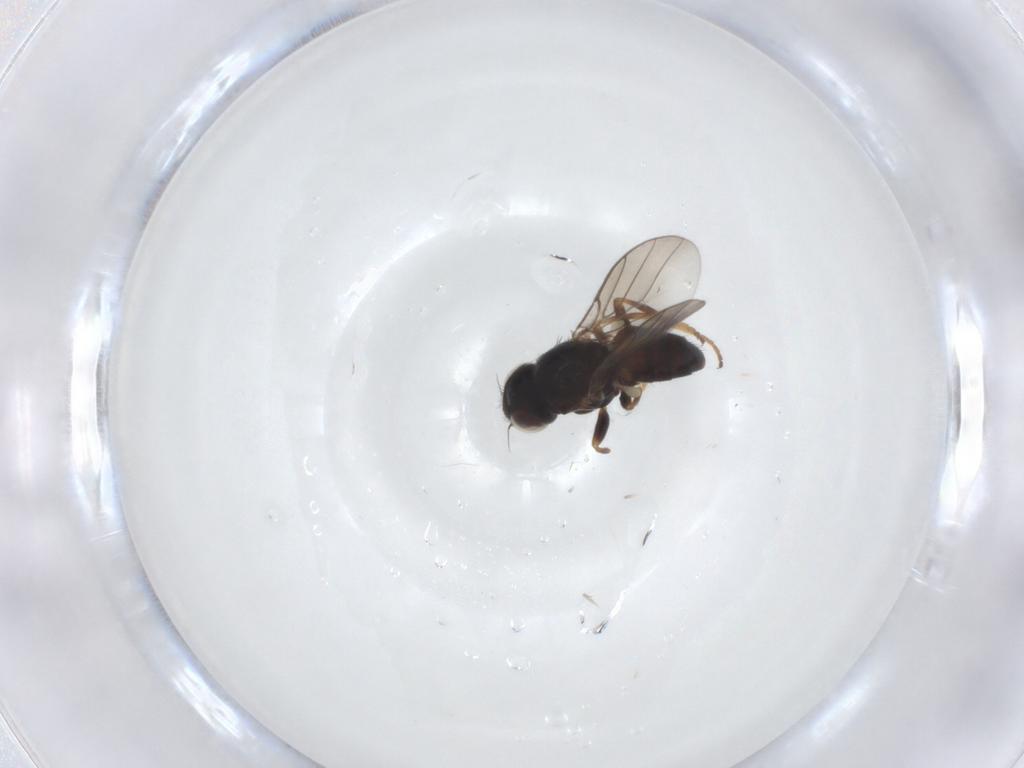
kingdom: Animalia
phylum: Arthropoda
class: Insecta
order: Diptera
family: Chloropidae
